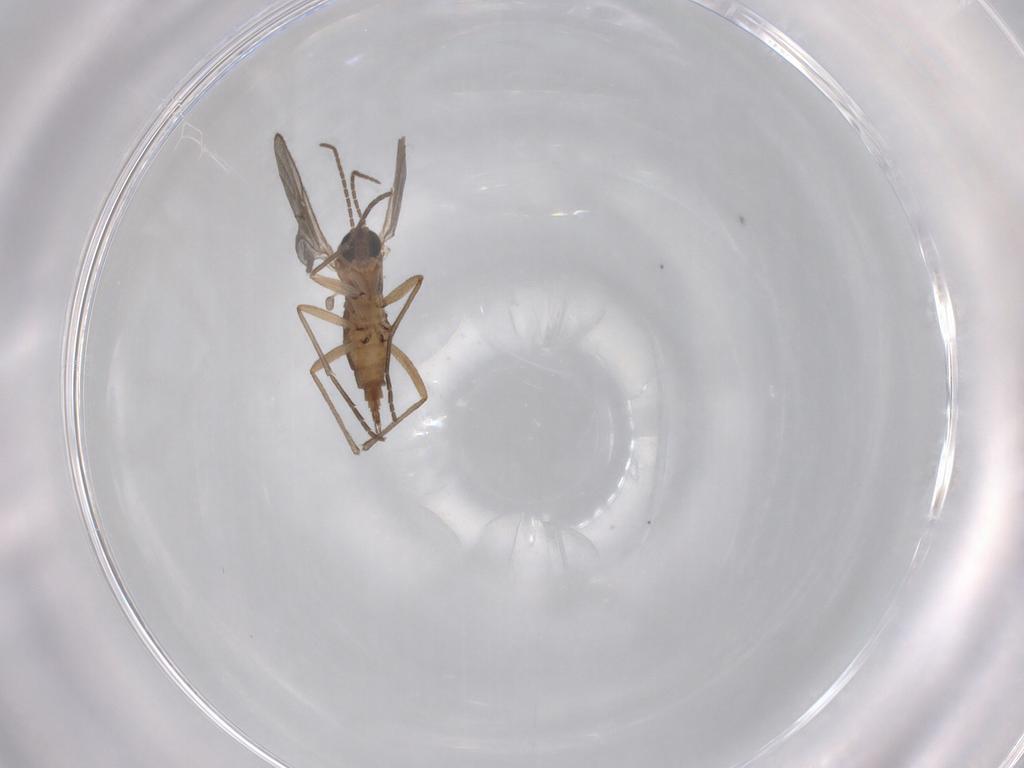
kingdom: Animalia
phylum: Arthropoda
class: Insecta
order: Diptera
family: Sciaridae
